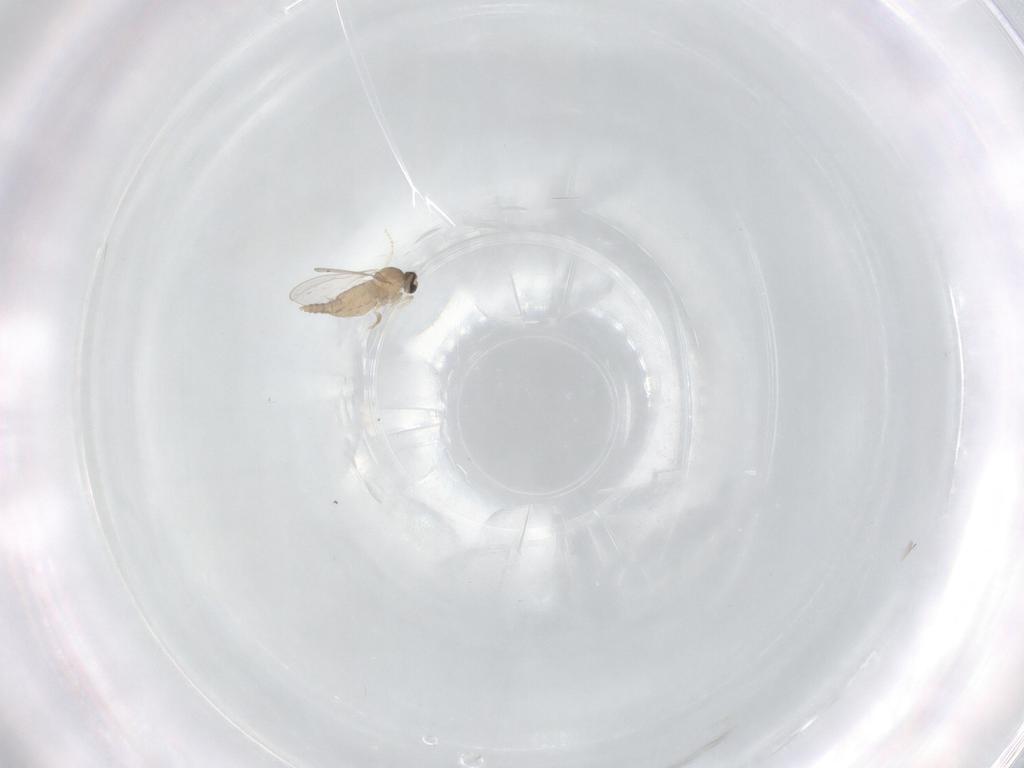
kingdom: Animalia
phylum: Arthropoda
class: Insecta
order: Diptera
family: Cecidomyiidae
